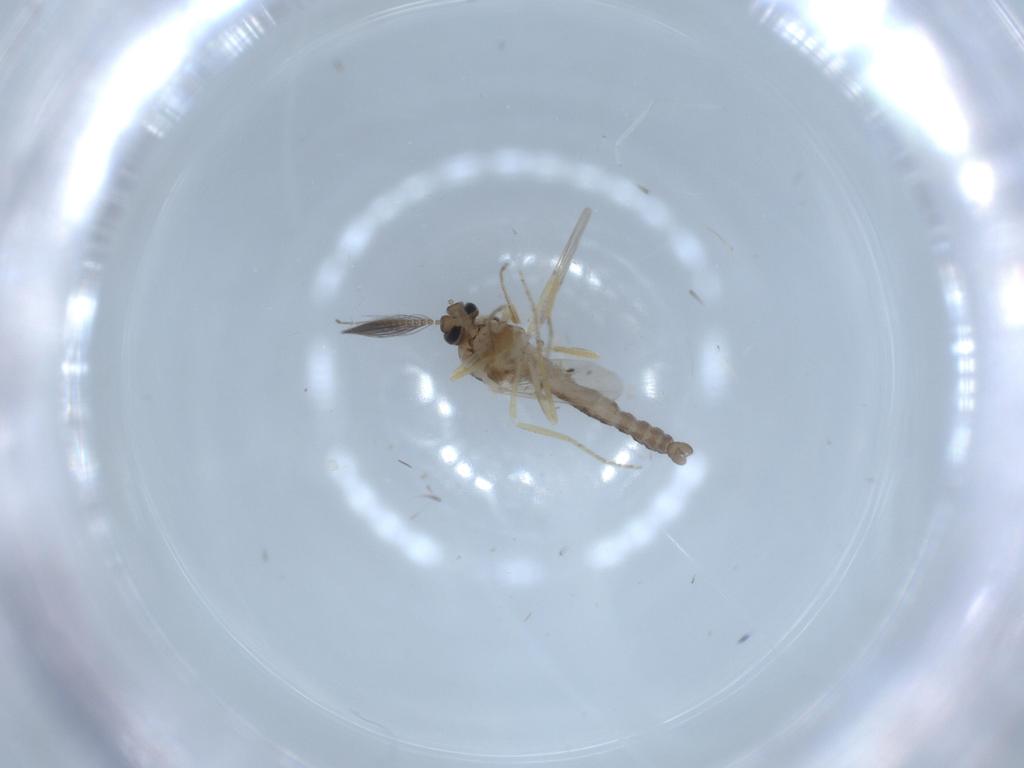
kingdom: Animalia
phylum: Arthropoda
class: Insecta
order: Diptera
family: Ceratopogonidae
